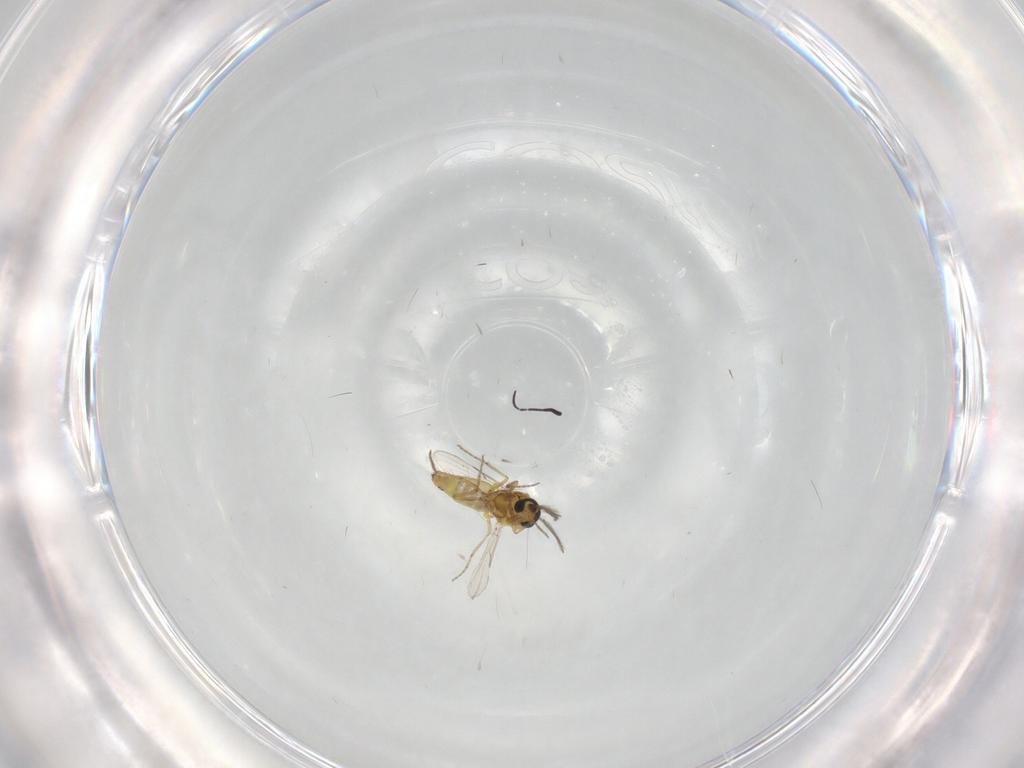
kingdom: Animalia
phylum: Arthropoda
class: Insecta
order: Diptera
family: Ceratopogonidae
